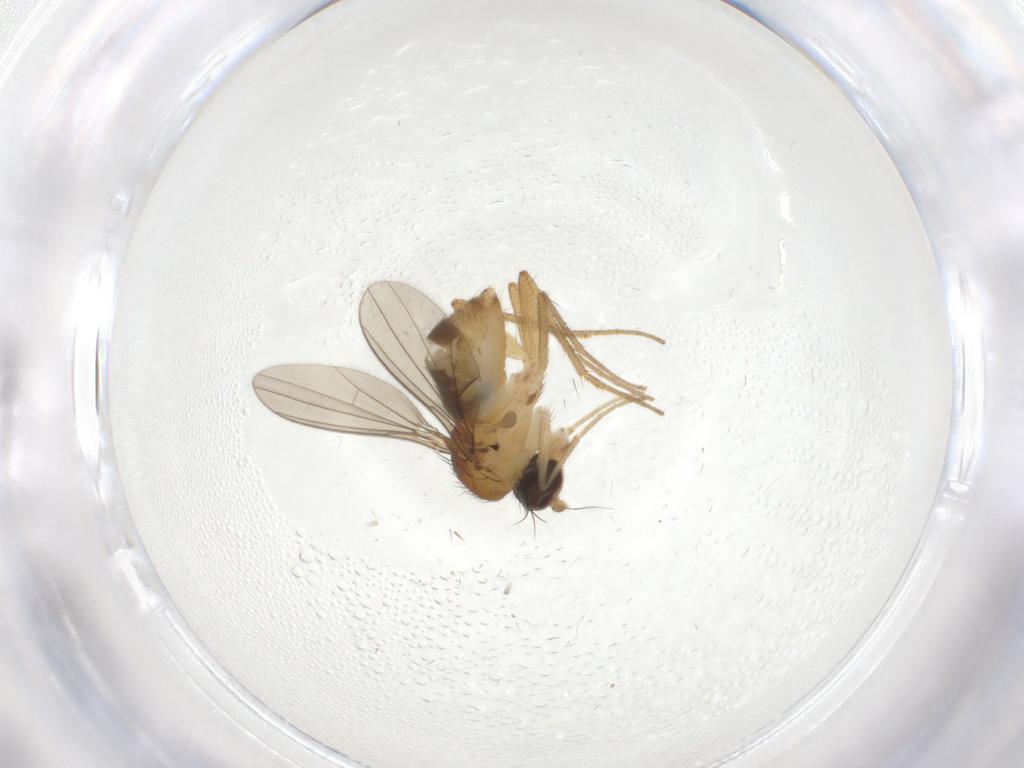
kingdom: Animalia
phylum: Arthropoda
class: Insecta
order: Diptera
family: Dolichopodidae
